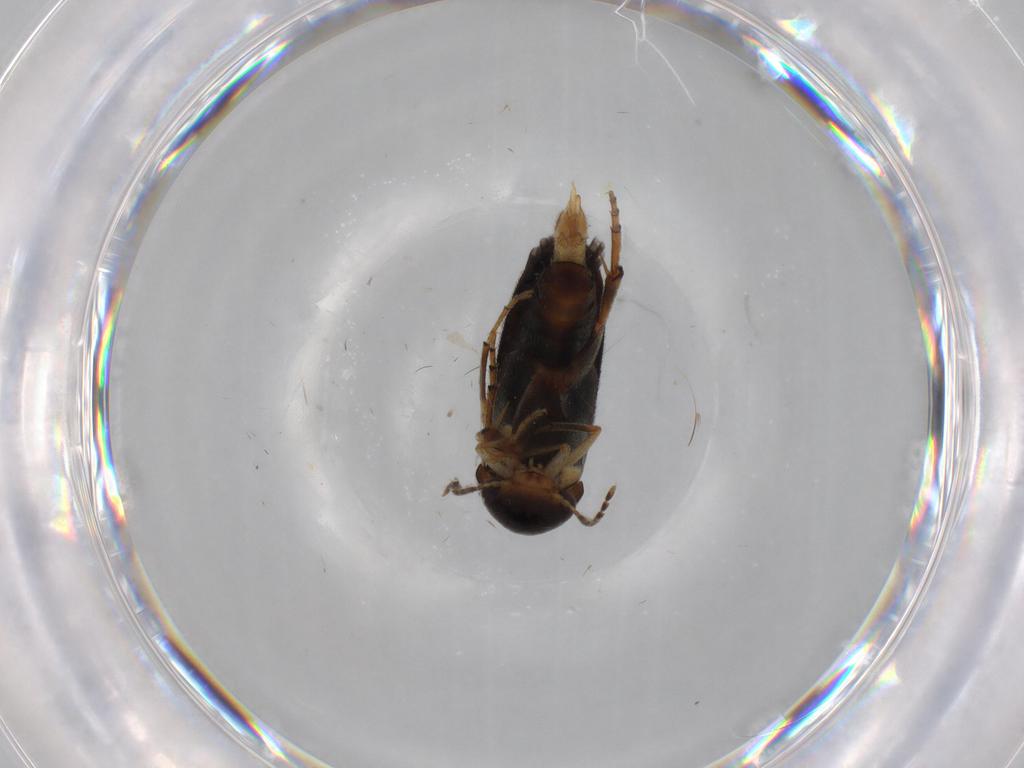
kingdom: Animalia
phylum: Arthropoda
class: Insecta
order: Coleoptera
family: Mordellidae
